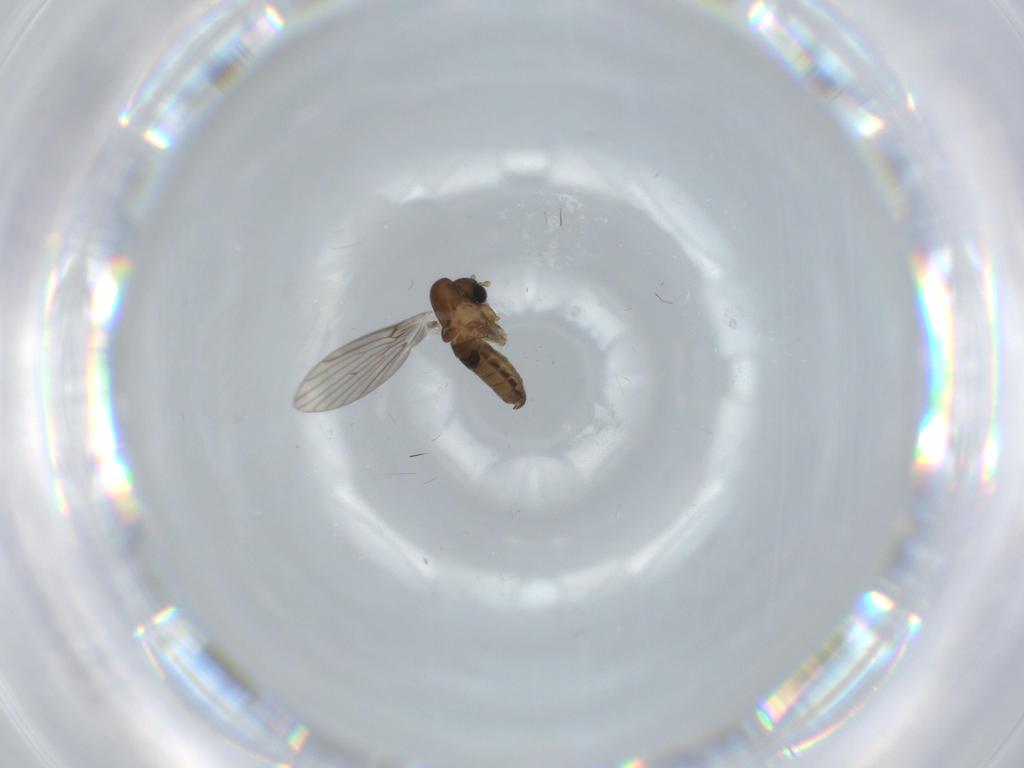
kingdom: Animalia
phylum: Arthropoda
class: Insecta
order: Diptera
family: Psychodidae
